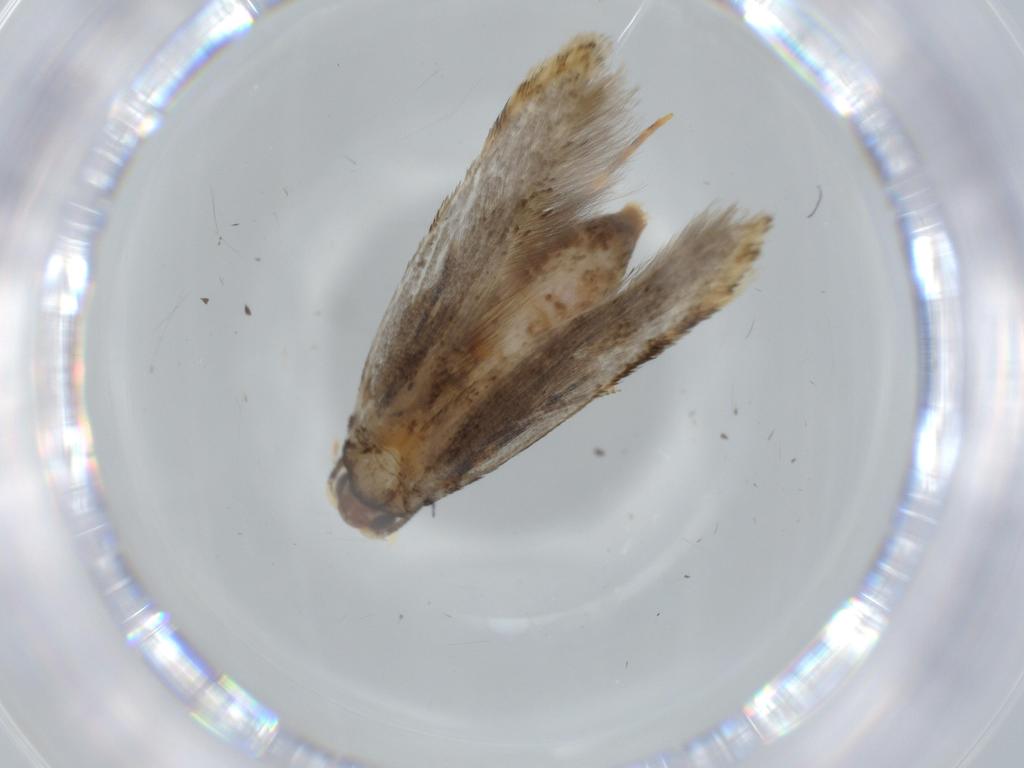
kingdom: Animalia
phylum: Arthropoda
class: Insecta
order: Lepidoptera
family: Tineidae
